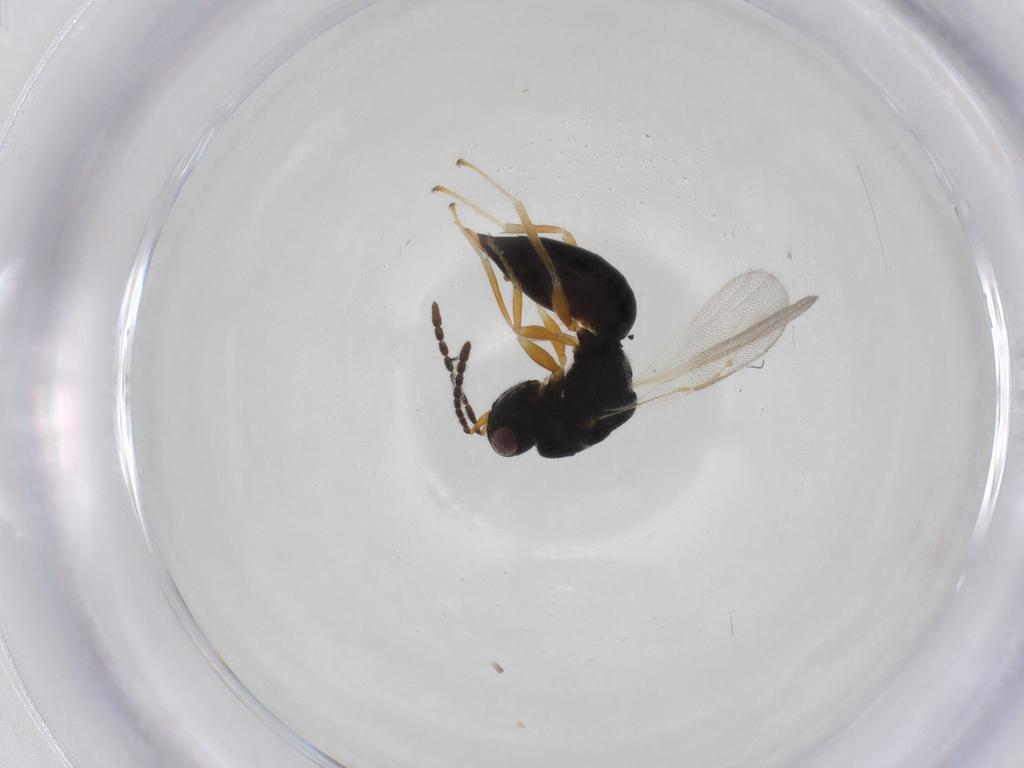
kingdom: Animalia
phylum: Arthropoda
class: Insecta
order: Hymenoptera
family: Eurytomidae
